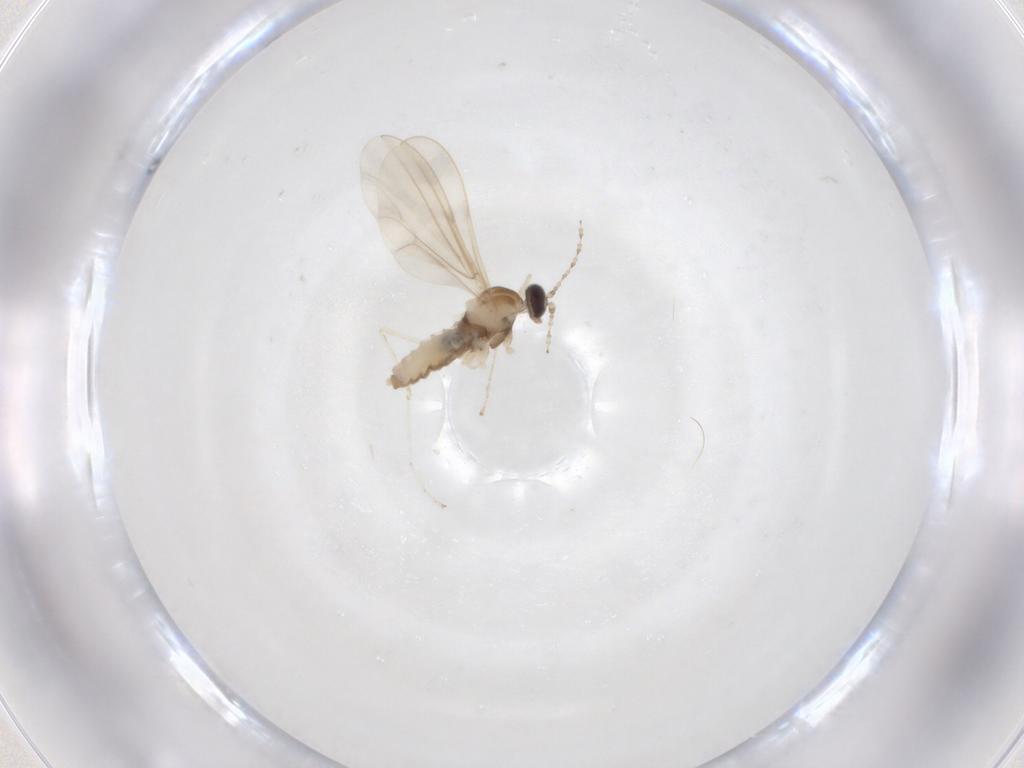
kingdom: Animalia
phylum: Arthropoda
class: Insecta
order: Diptera
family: Cecidomyiidae
